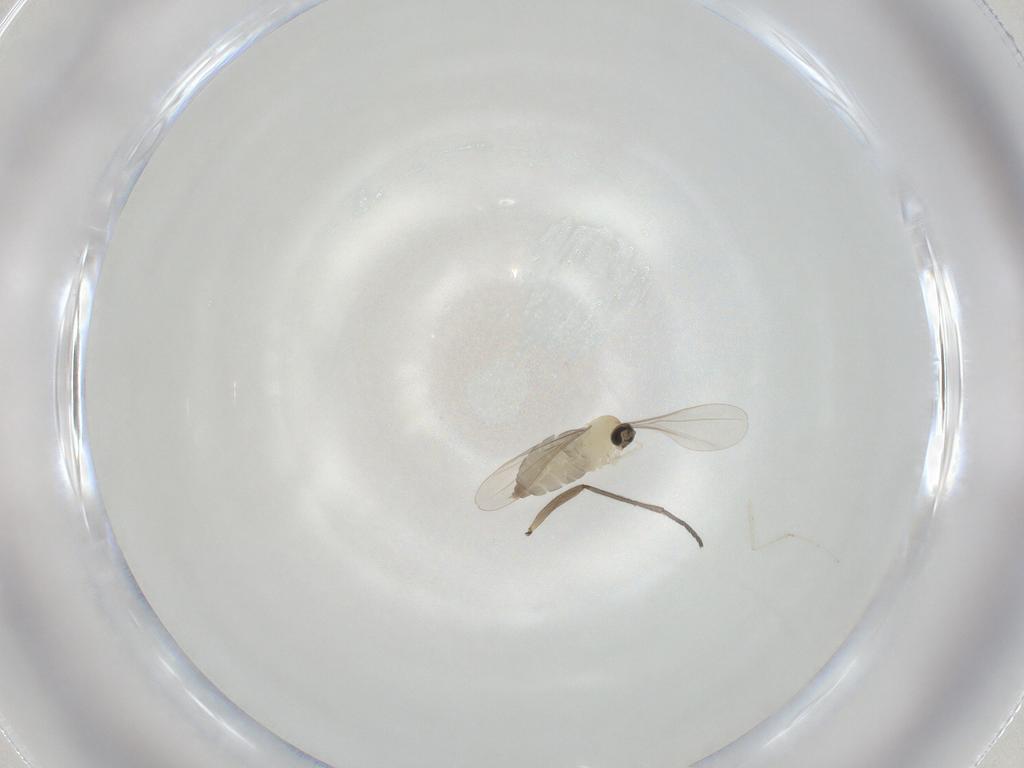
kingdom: Animalia
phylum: Arthropoda
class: Insecta
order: Diptera
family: Sciaridae
